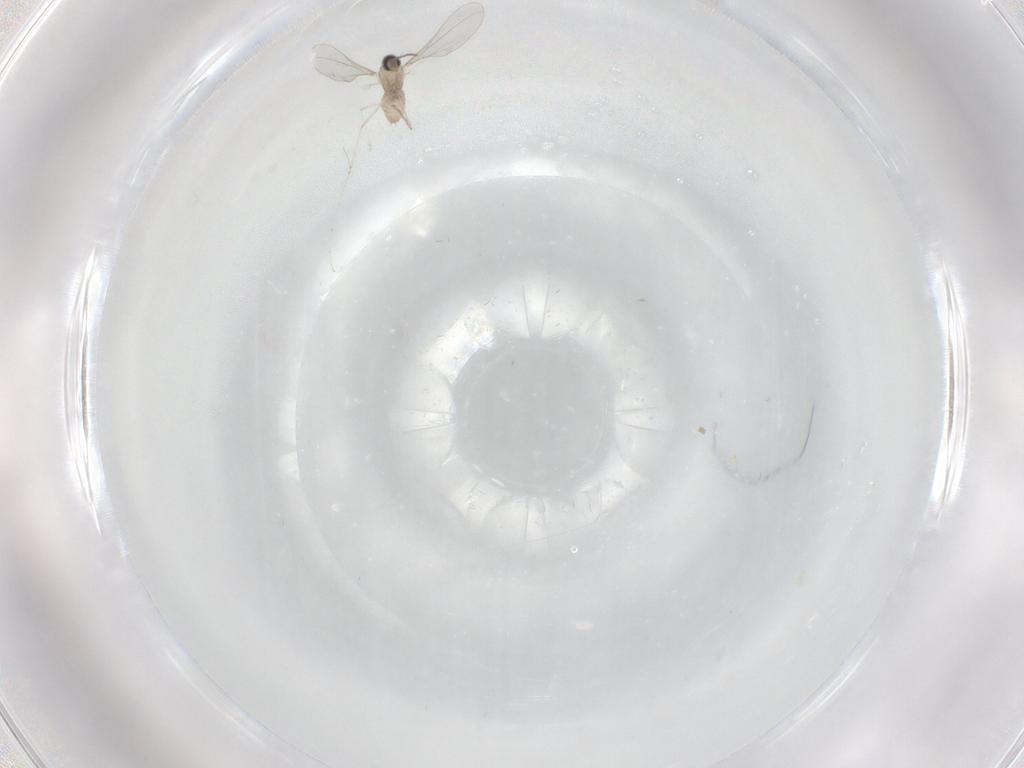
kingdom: Animalia
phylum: Arthropoda
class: Insecta
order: Diptera
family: Cecidomyiidae
